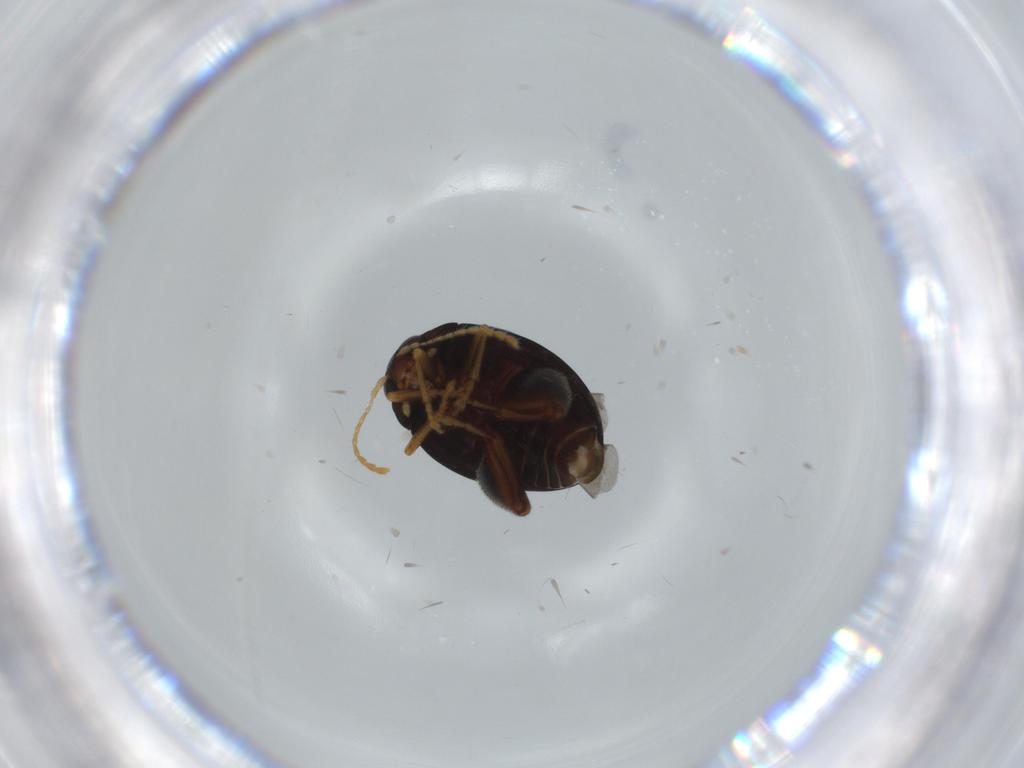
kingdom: Animalia
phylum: Arthropoda
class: Insecta
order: Coleoptera
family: Chrysomelidae
